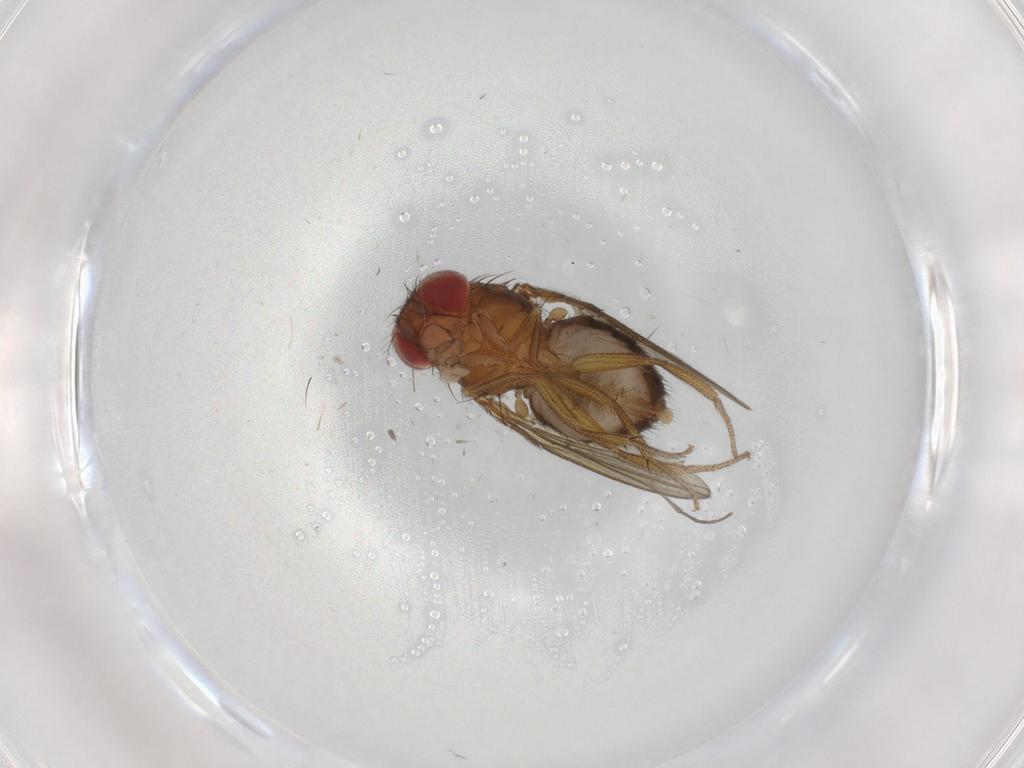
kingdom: Animalia
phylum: Arthropoda
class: Insecta
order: Diptera
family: Drosophilidae
